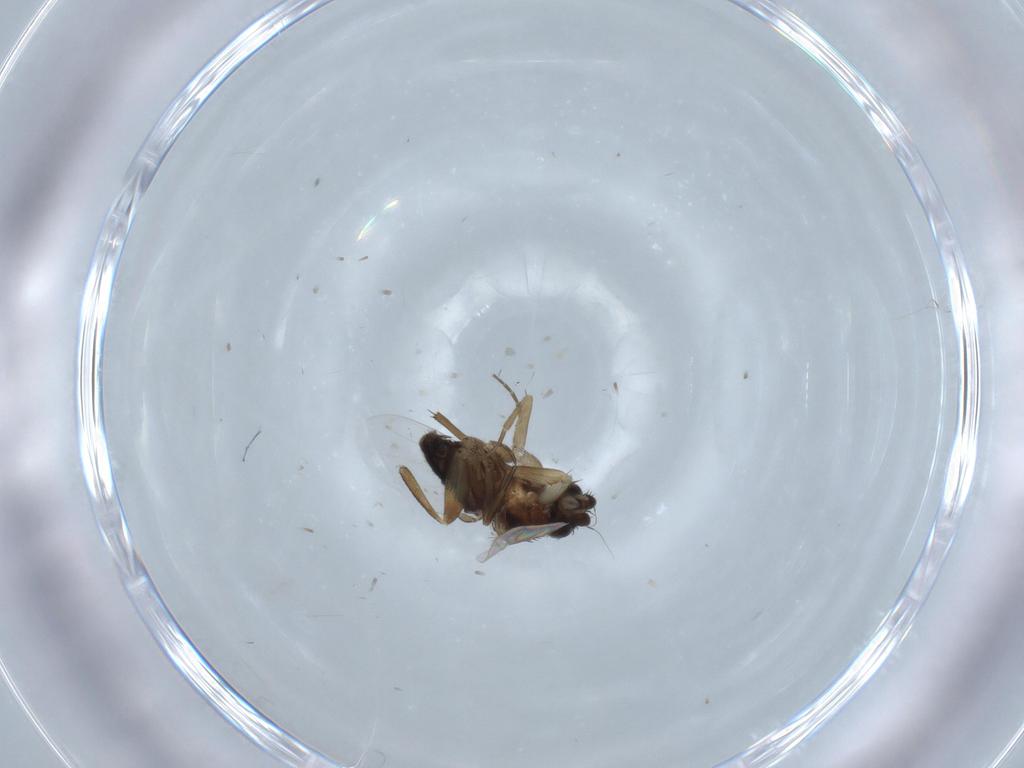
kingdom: Animalia
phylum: Arthropoda
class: Insecta
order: Diptera
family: Phoridae
